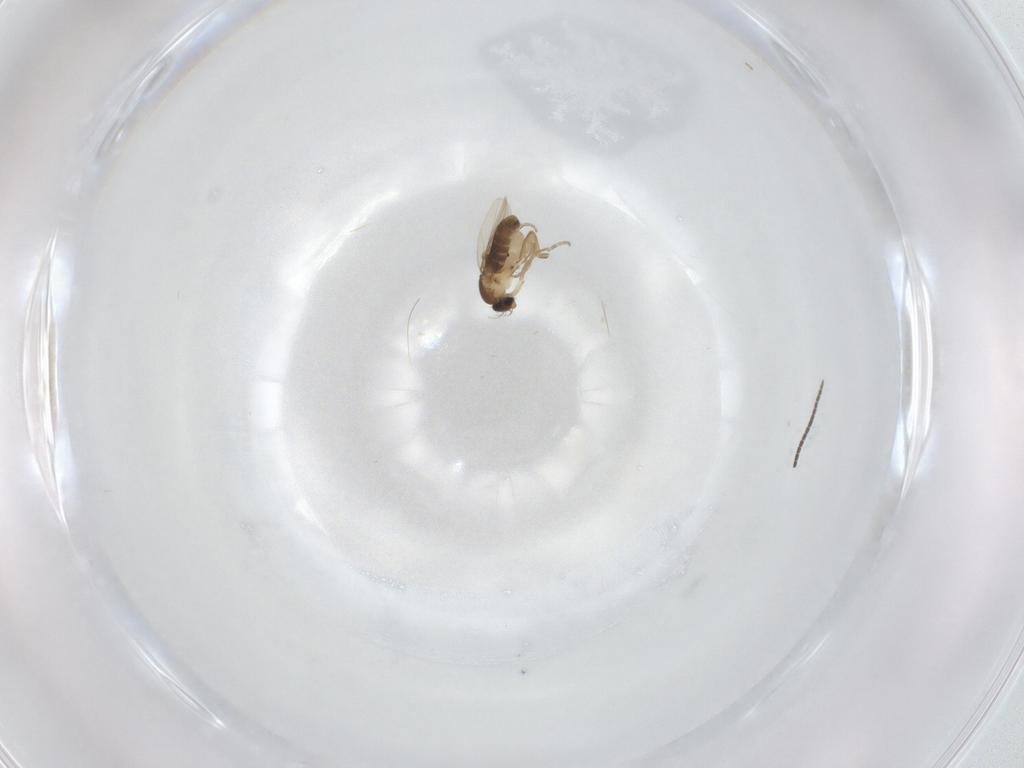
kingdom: Animalia
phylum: Arthropoda
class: Insecta
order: Diptera
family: Sciaridae
